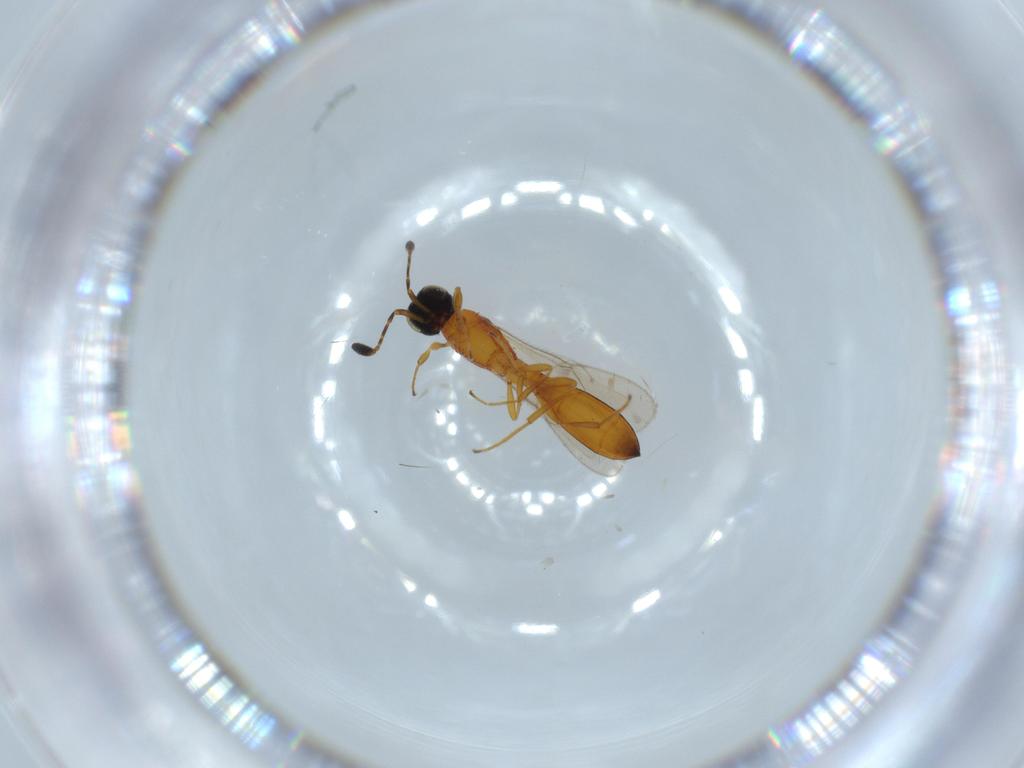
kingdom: Animalia
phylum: Arthropoda
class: Insecta
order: Hymenoptera
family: Scelionidae
